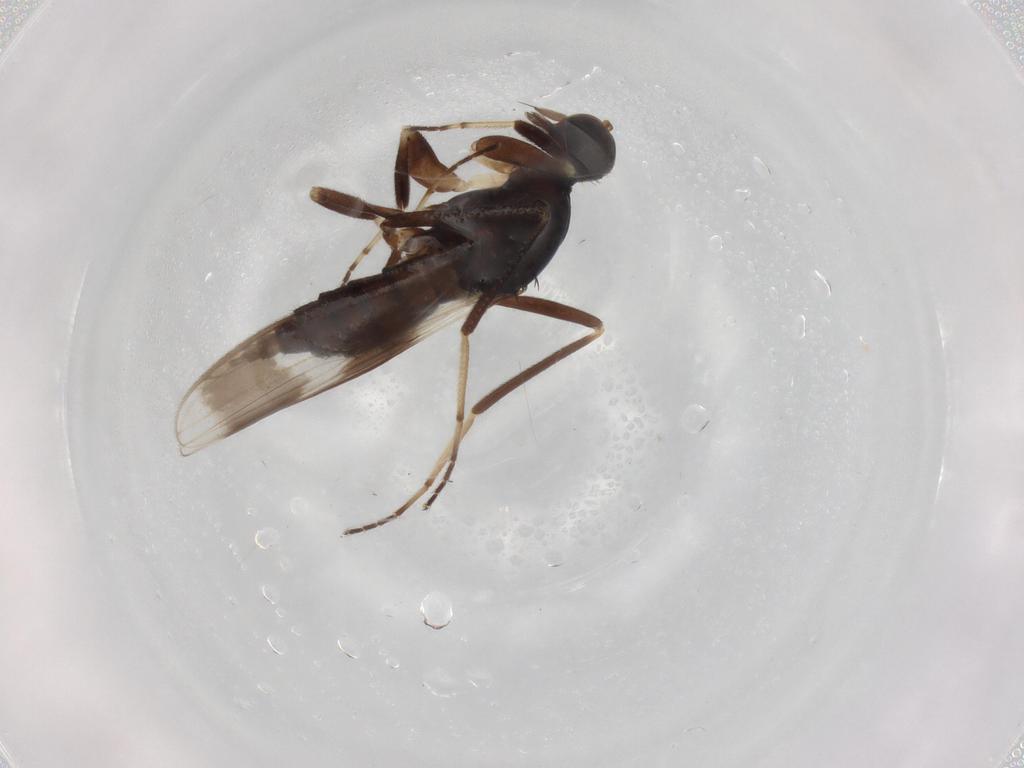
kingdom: Animalia
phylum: Arthropoda
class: Insecta
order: Diptera
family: Hybotidae
